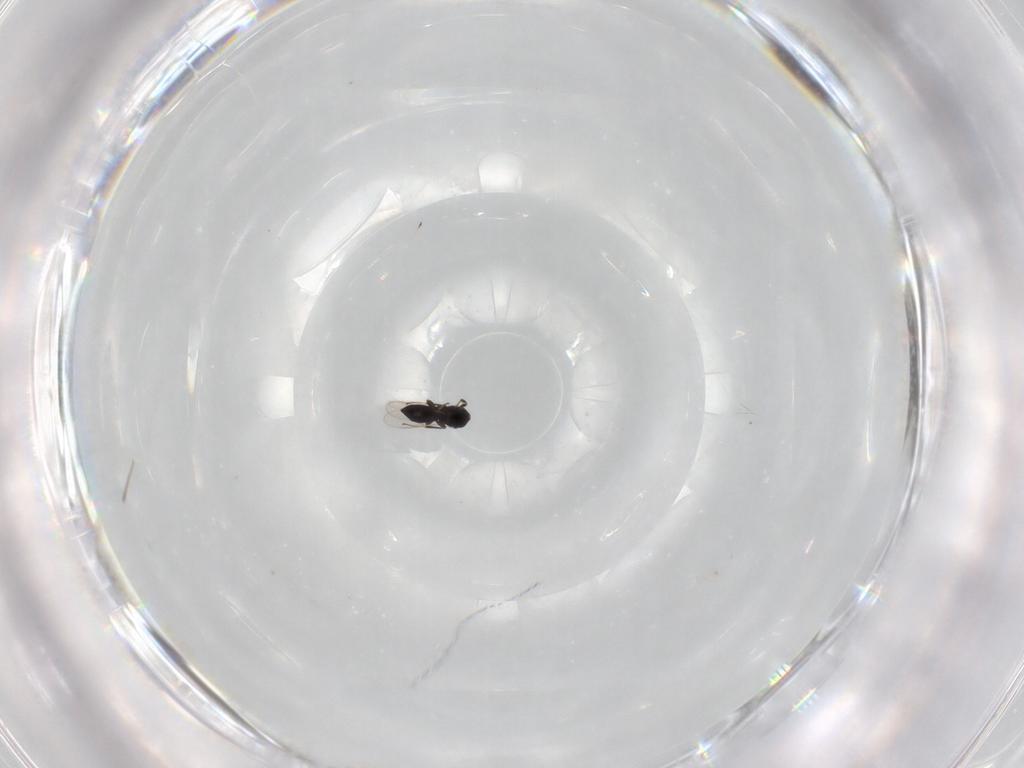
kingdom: Animalia
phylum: Arthropoda
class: Insecta
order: Hymenoptera
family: Scelionidae
